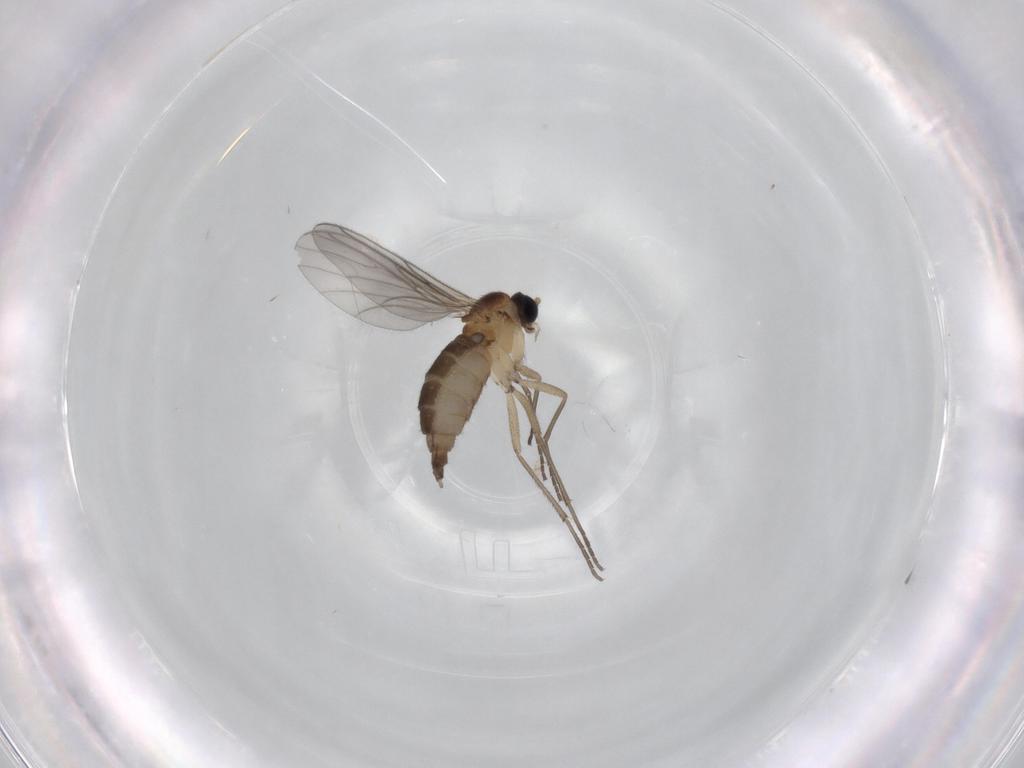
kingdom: Animalia
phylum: Arthropoda
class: Insecta
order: Diptera
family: Sciaridae
